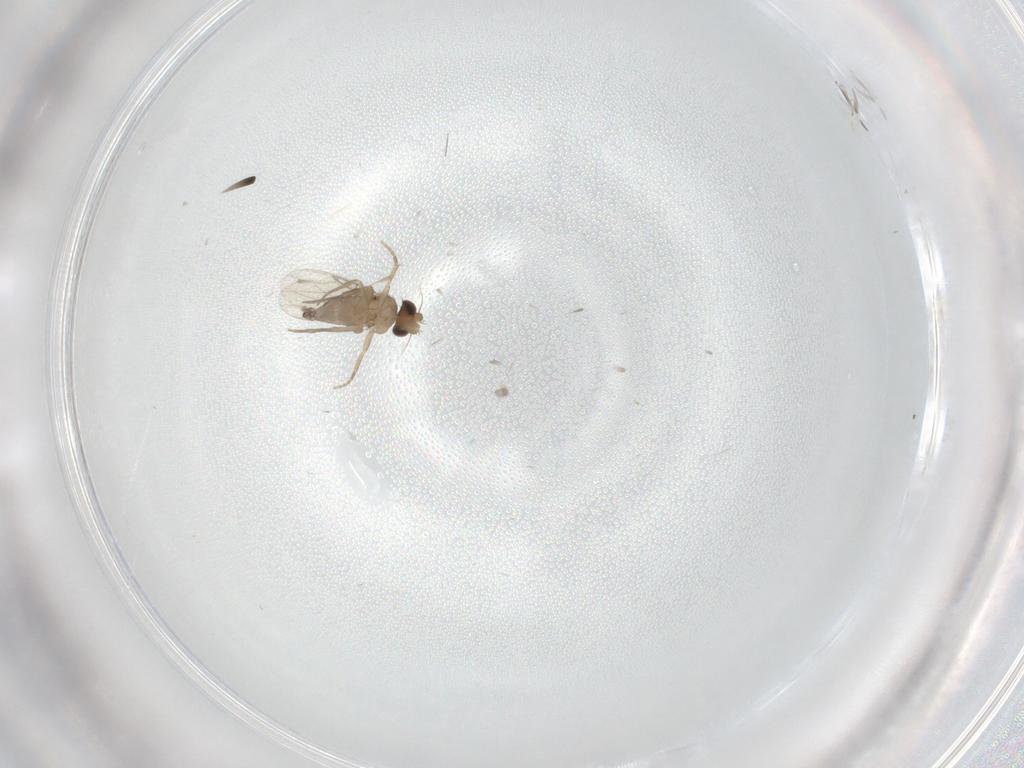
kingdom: Animalia
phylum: Arthropoda
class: Insecta
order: Diptera
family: Phoridae
